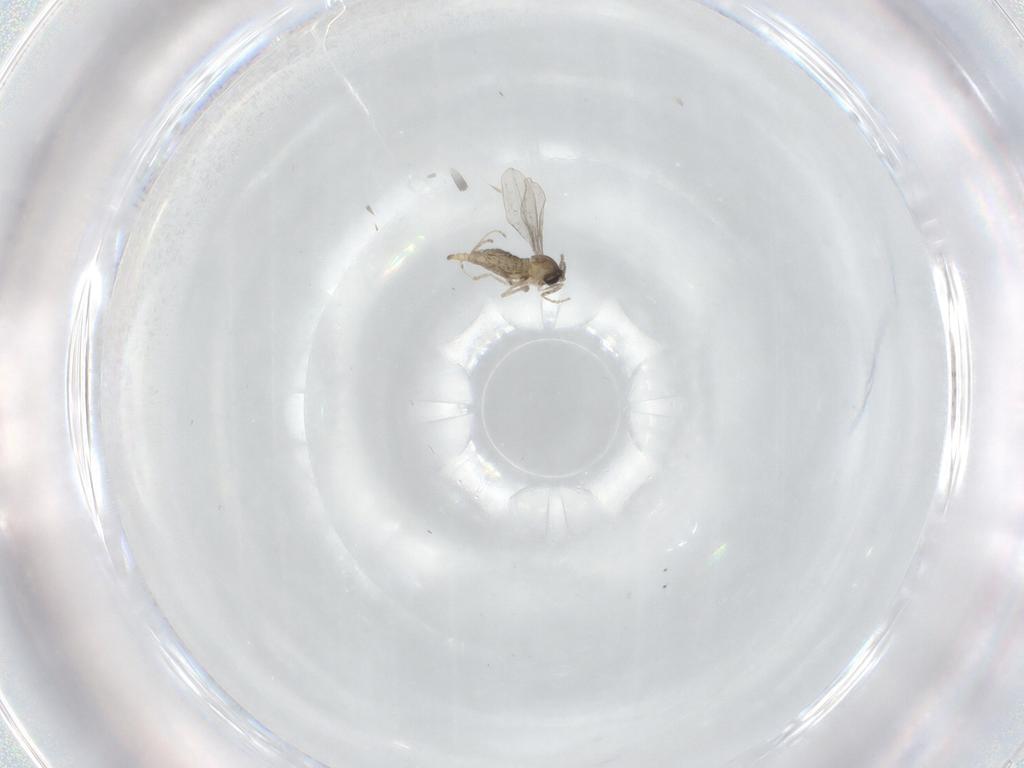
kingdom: Animalia
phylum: Arthropoda
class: Insecta
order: Diptera
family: Cecidomyiidae
